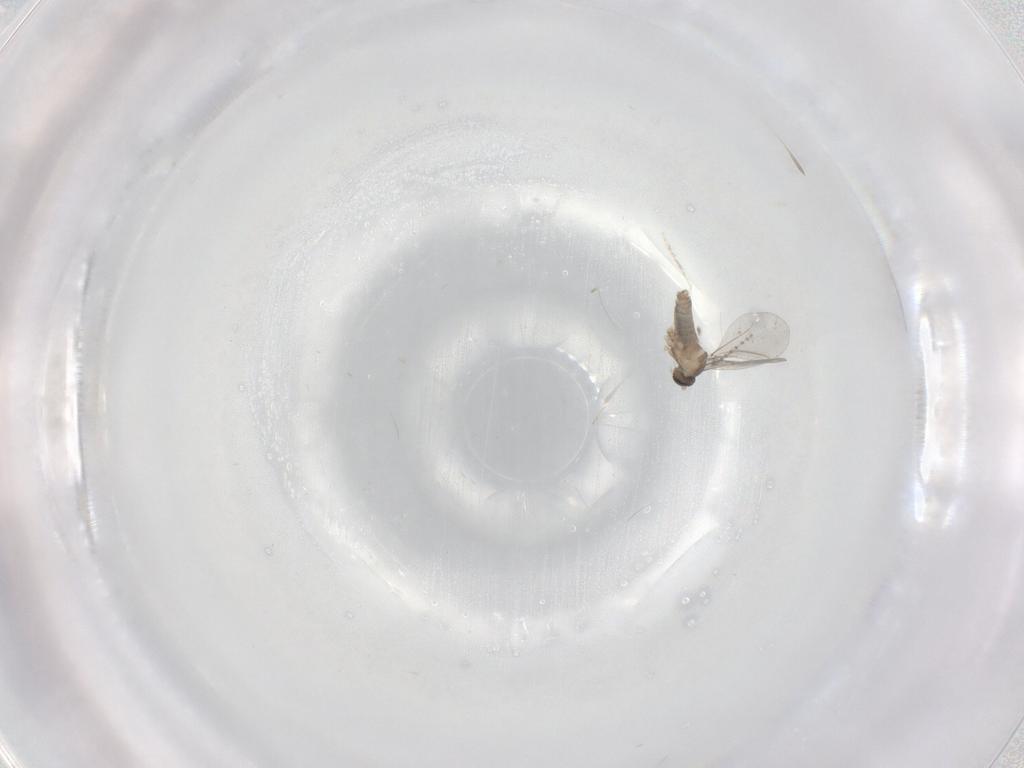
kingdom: Animalia
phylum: Arthropoda
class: Insecta
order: Diptera
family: Cecidomyiidae
